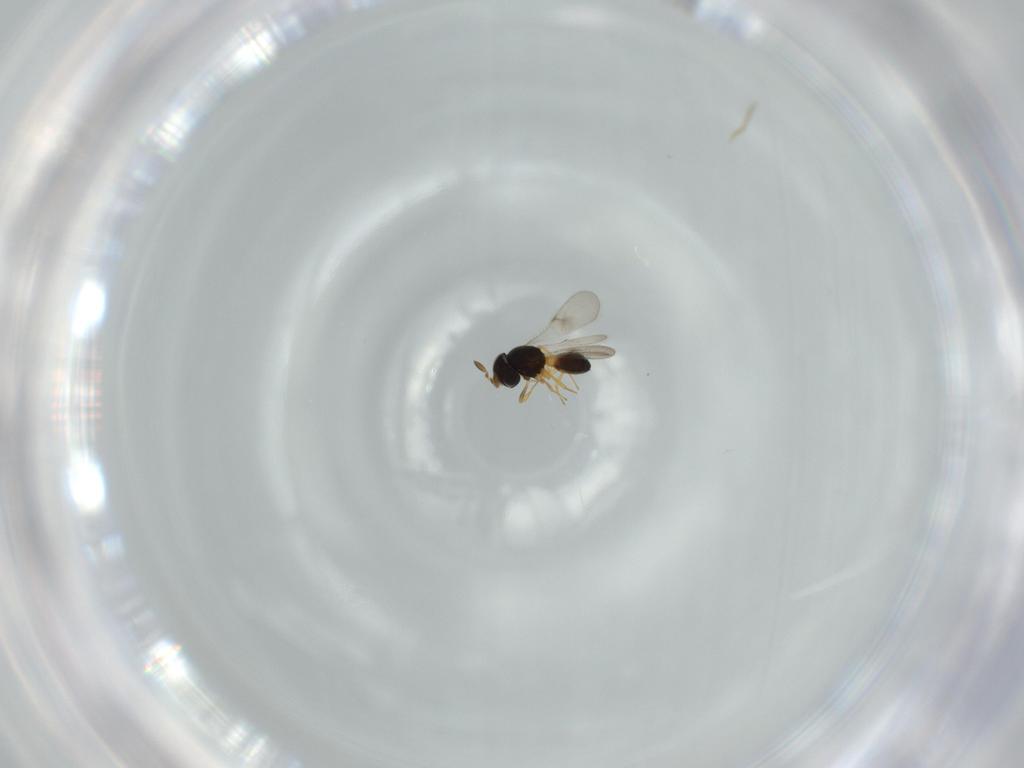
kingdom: Animalia
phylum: Arthropoda
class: Insecta
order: Hymenoptera
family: Scelionidae
